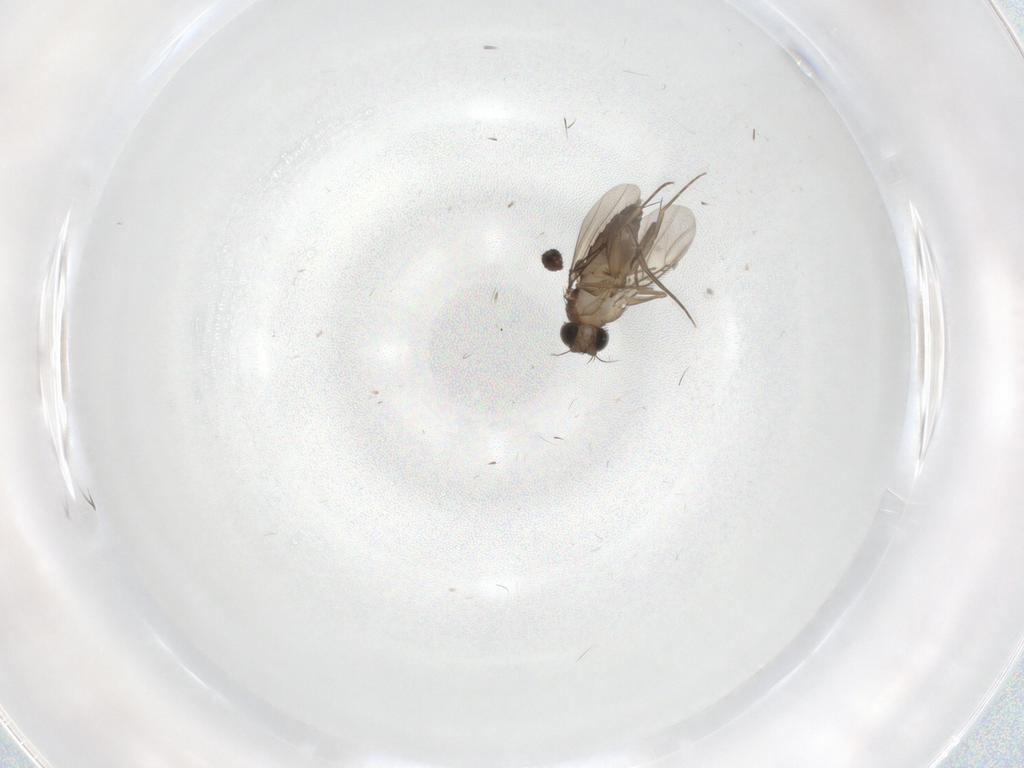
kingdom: Animalia
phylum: Arthropoda
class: Insecta
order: Diptera
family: Phoridae
